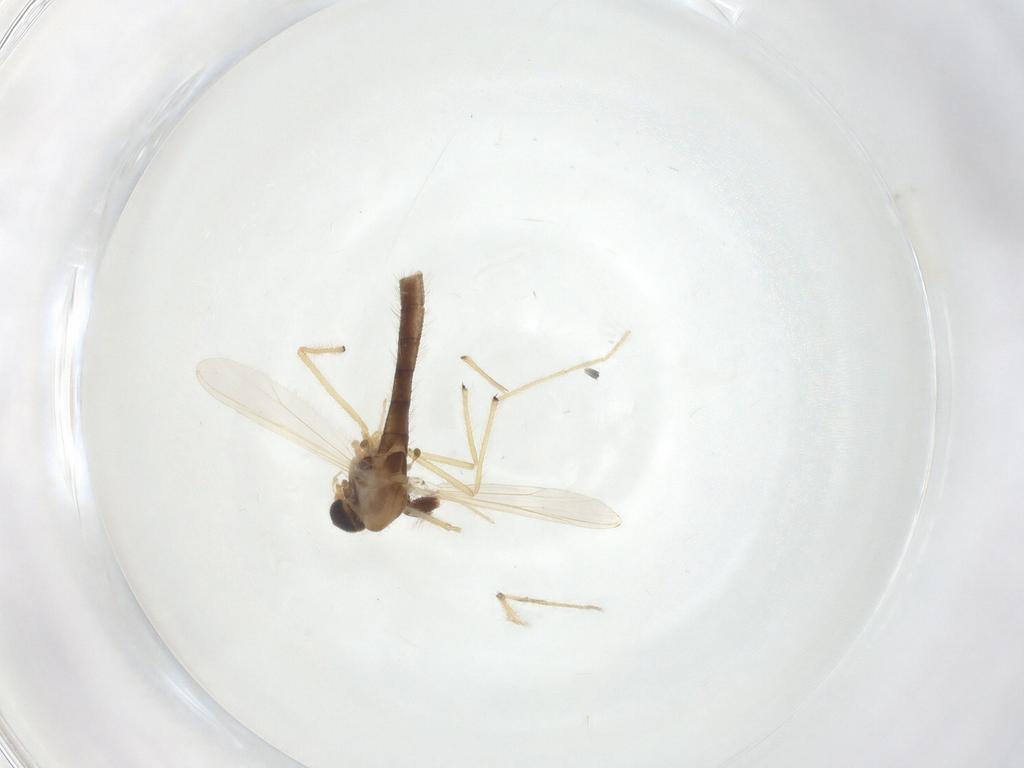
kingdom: Animalia
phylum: Arthropoda
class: Insecta
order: Diptera
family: Chironomidae
